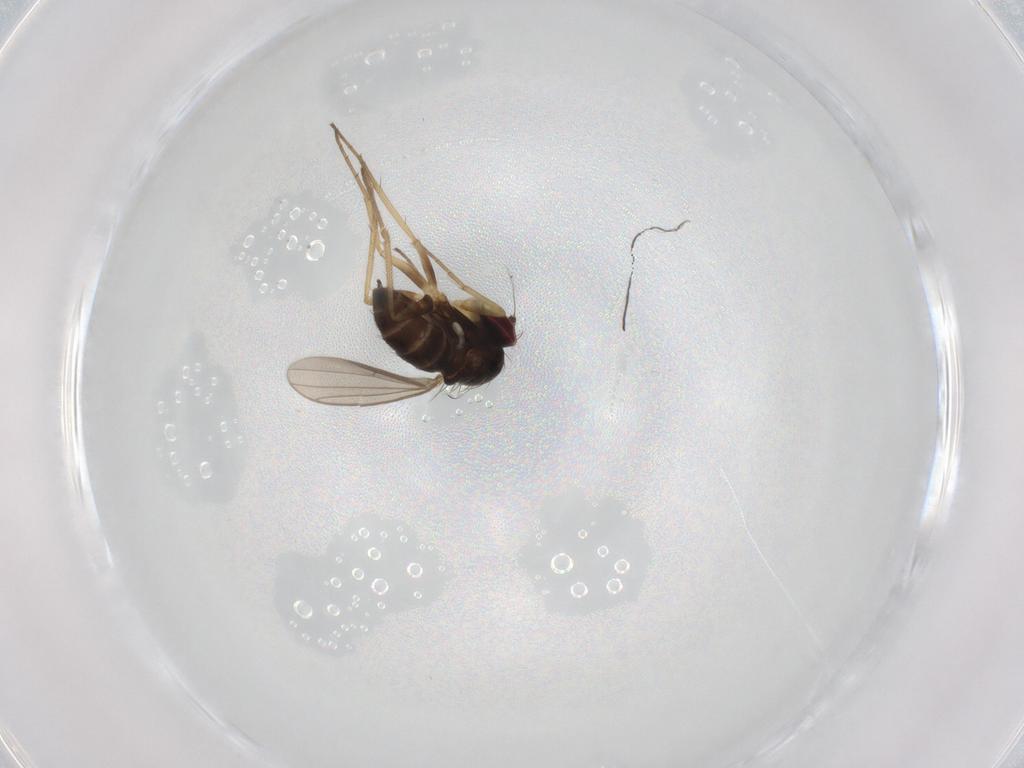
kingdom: Animalia
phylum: Arthropoda
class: Insecta
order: Diptera
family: Dolichopodidae
